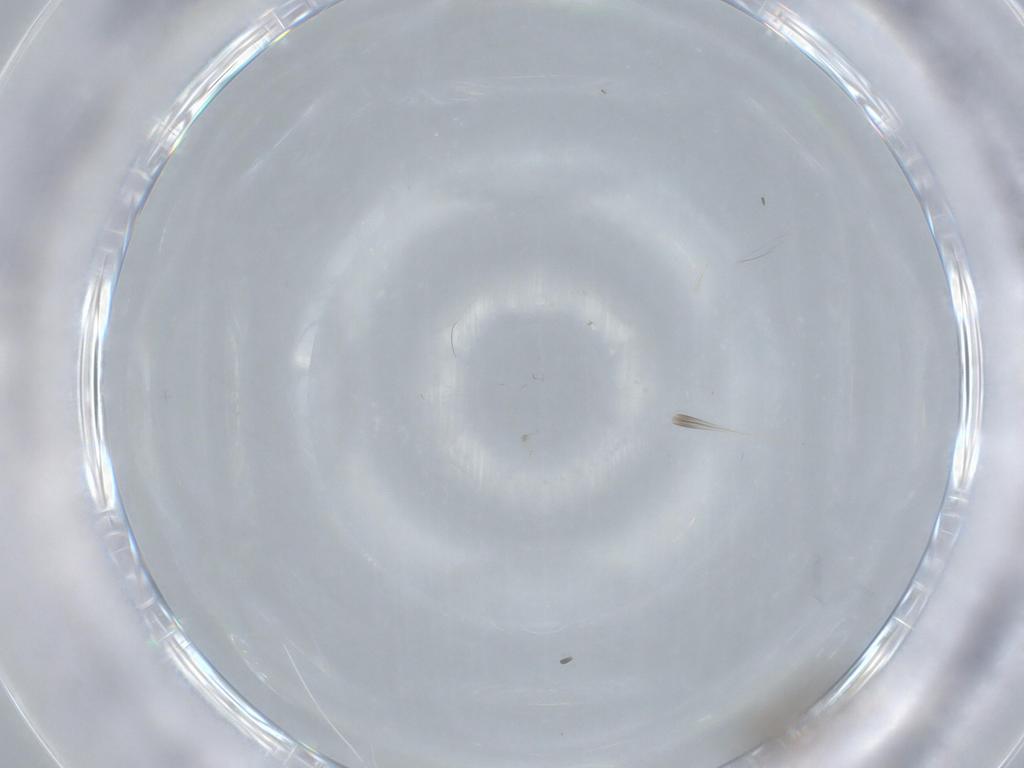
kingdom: Animalia
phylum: Arthropoda
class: Insecta
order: Diptera
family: Cecidomyiidae
